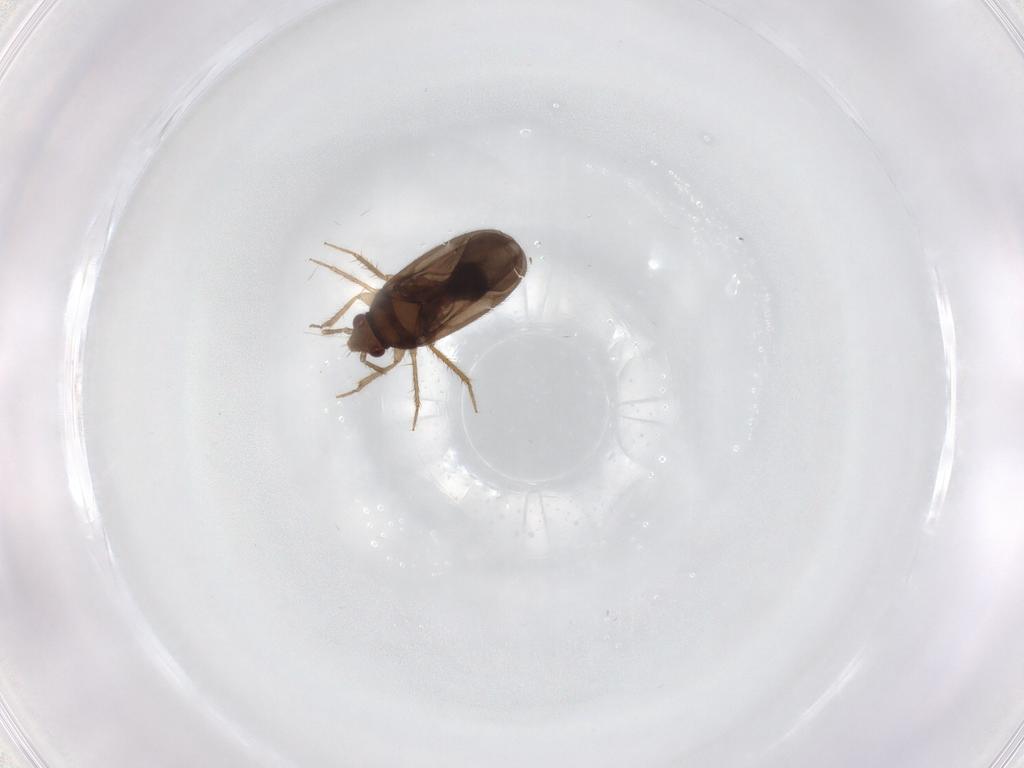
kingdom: Animalia
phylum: Arthropoda
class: Insecta
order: Hemiptera
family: Ceratocombidae
